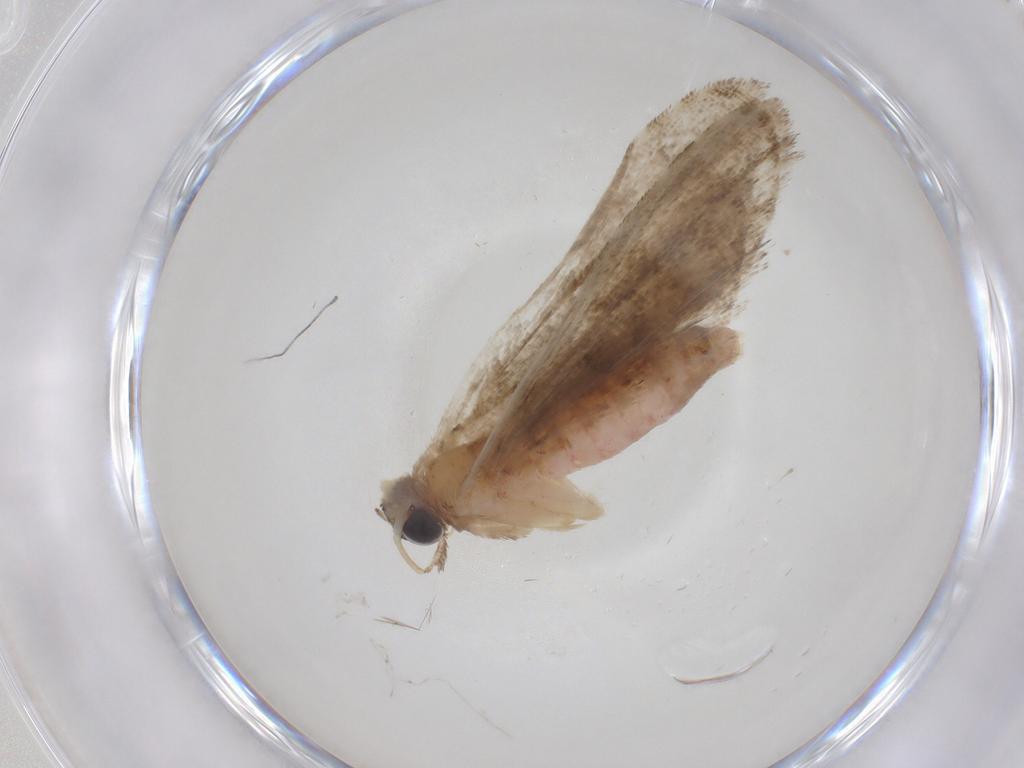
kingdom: Animalia
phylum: Arthropoda
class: Insecta
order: Lepidoptera
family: Erebidae
